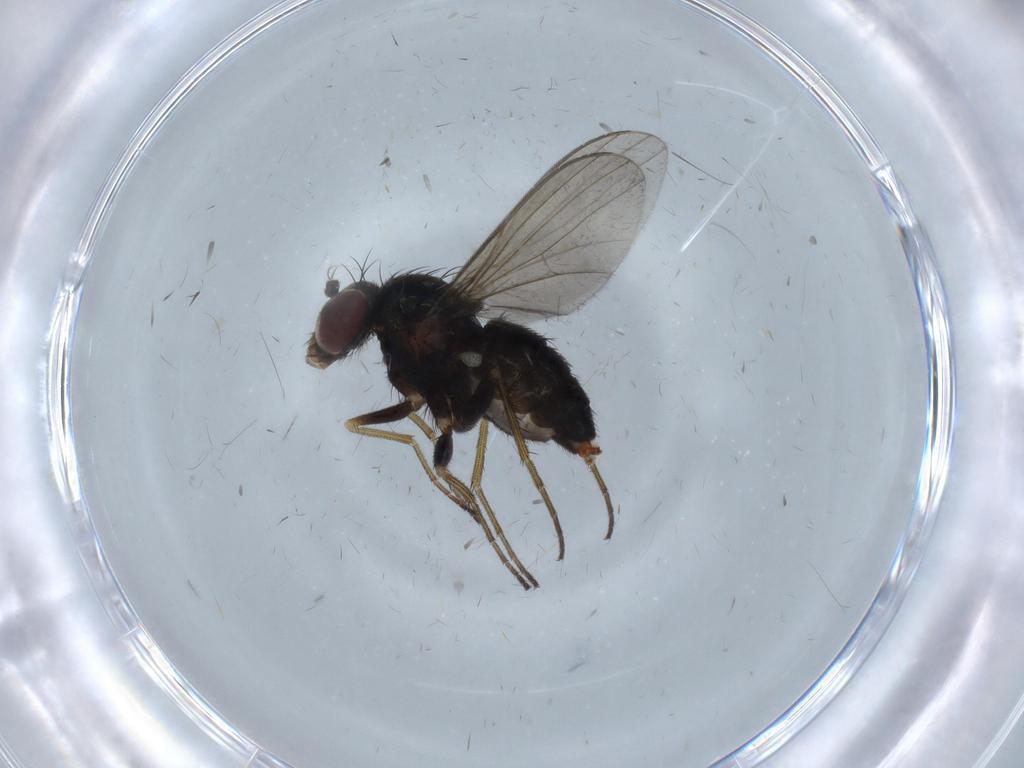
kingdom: Animalia
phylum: Arthropoda
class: Insecta
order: Diptera
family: Dolichopodidae
